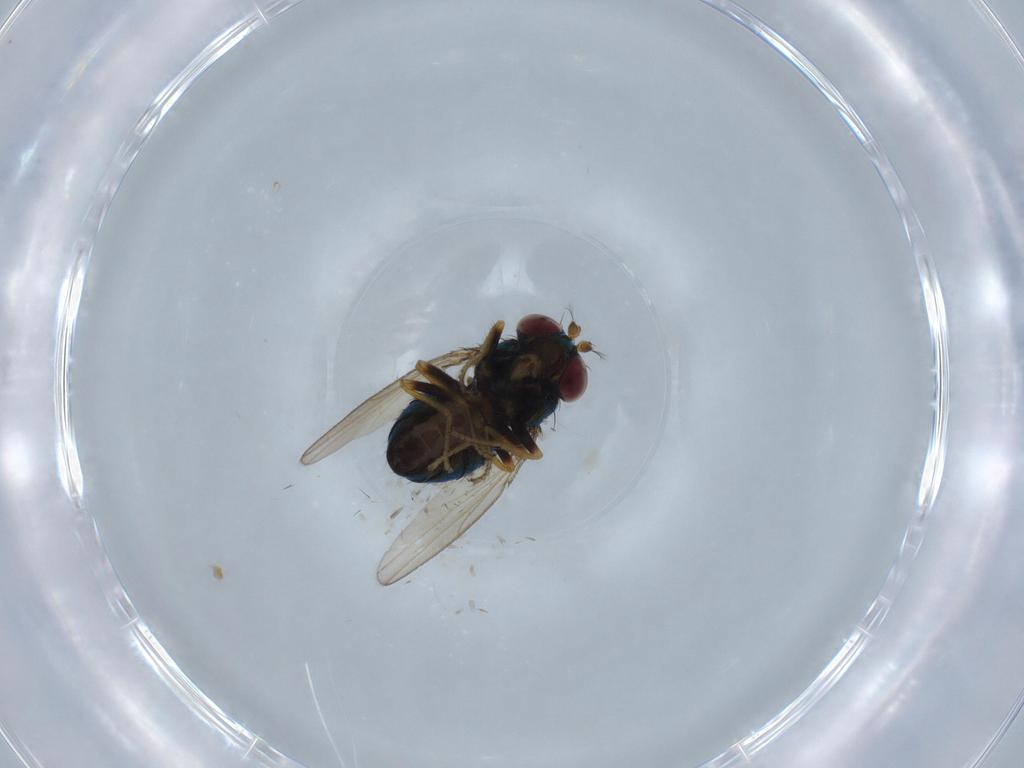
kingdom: Animalia
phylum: Arthropoda
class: Insecta
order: Diptera
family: Ephydridae
